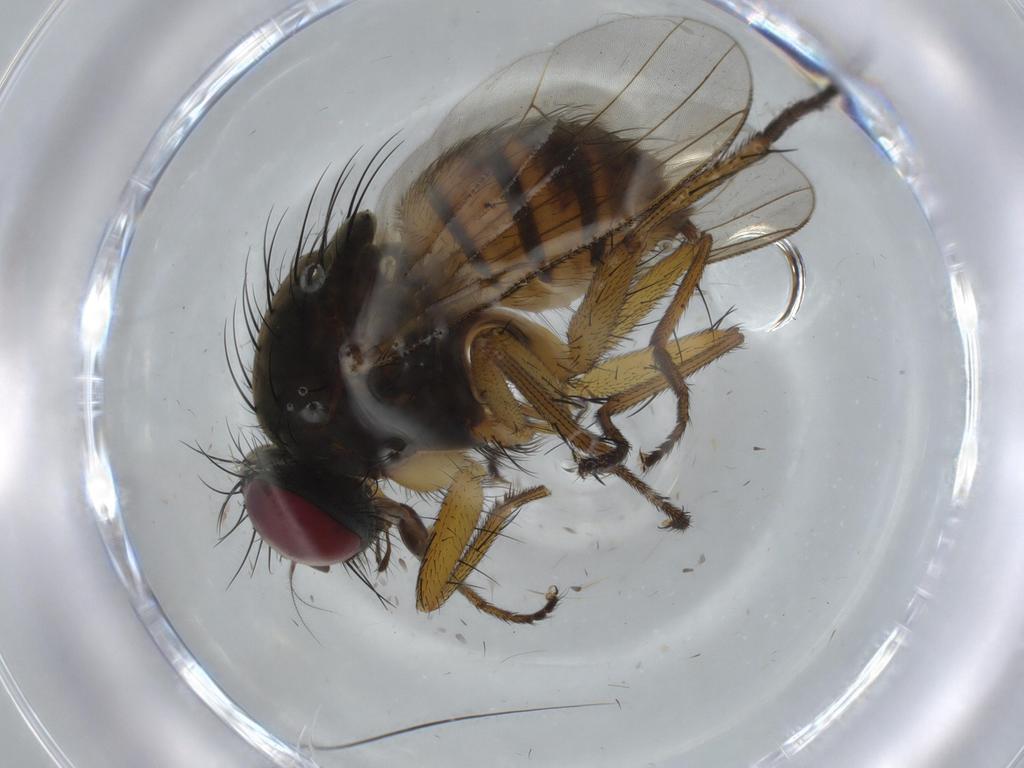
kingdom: Animalia
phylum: Arthropoda
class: Insecta
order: Diptera
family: Muscidae
